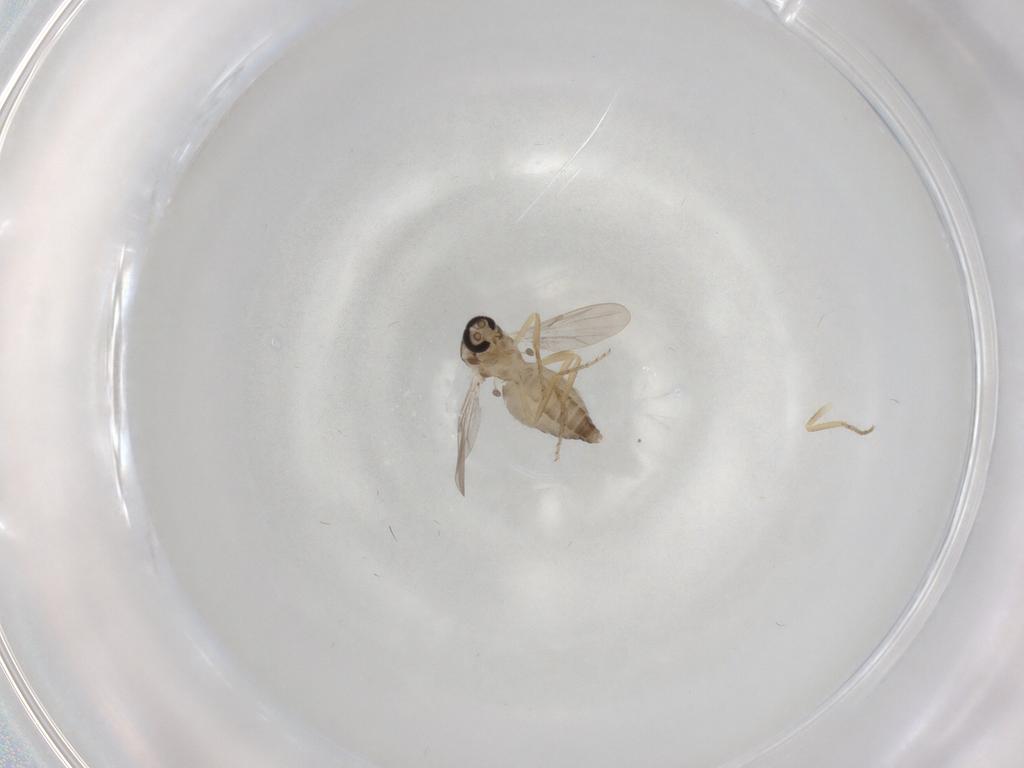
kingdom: Animalia
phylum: Arthropoda
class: Insecta
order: Diptera
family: Ceratopogonidae
